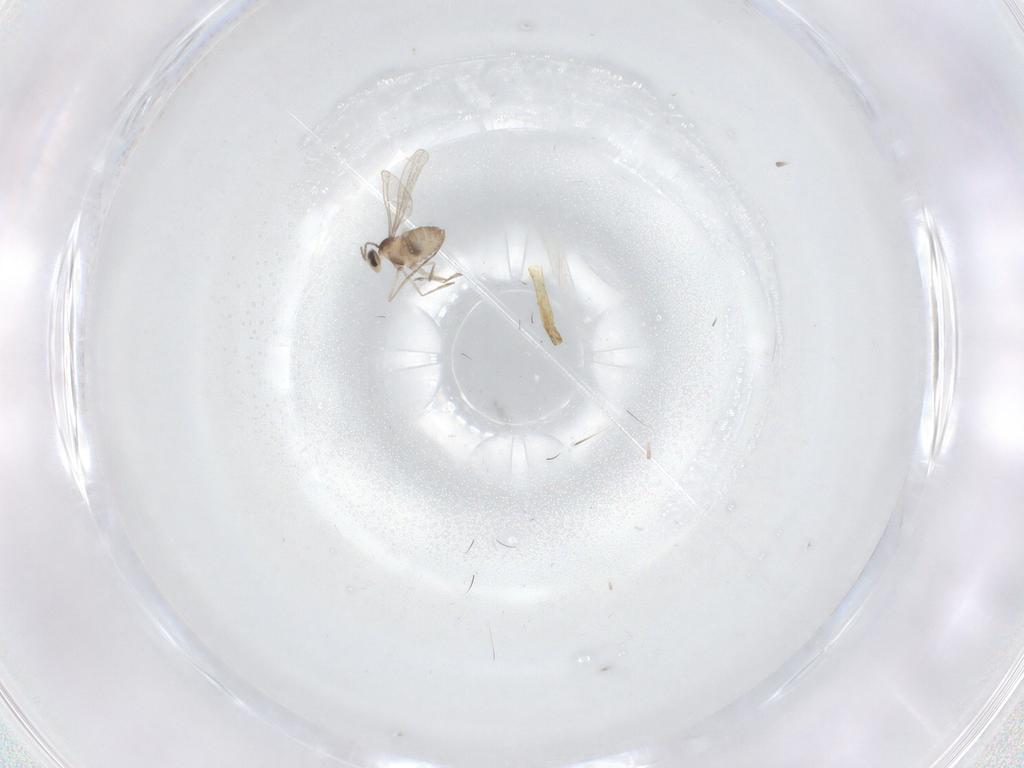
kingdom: Animalia
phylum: Arthropoda
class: Insecta
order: Diptera
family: Cecidomyiidae
